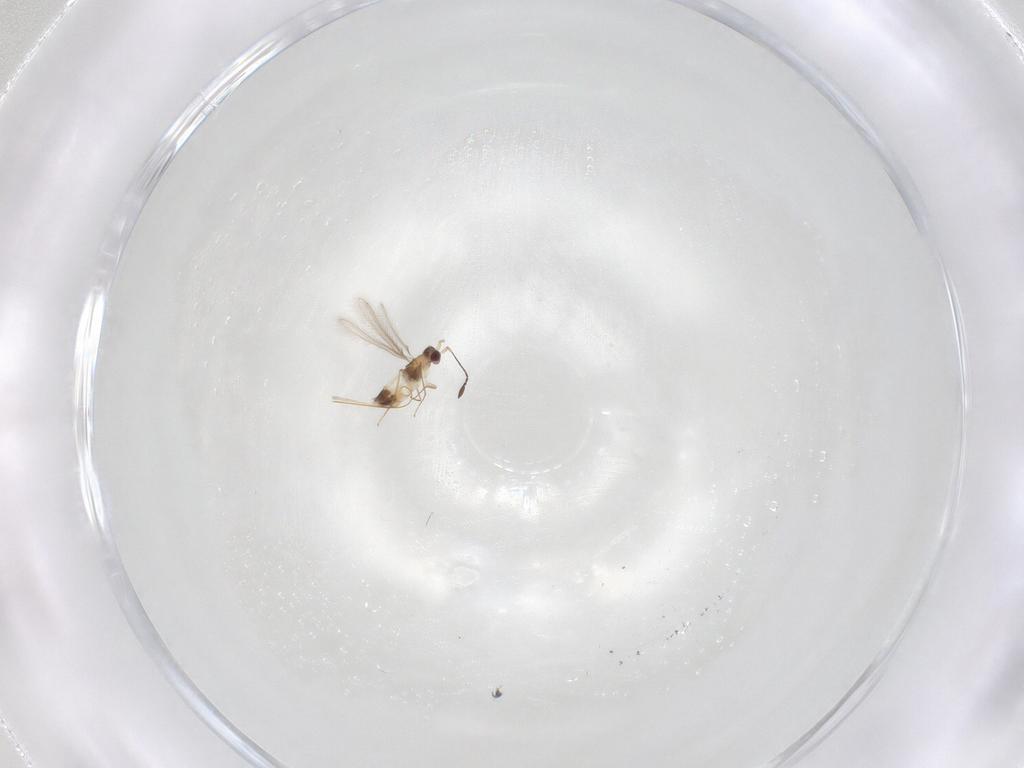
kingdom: Animalia
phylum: Arthropoda
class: Insecta
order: Hymenoptera
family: Mymaridae
